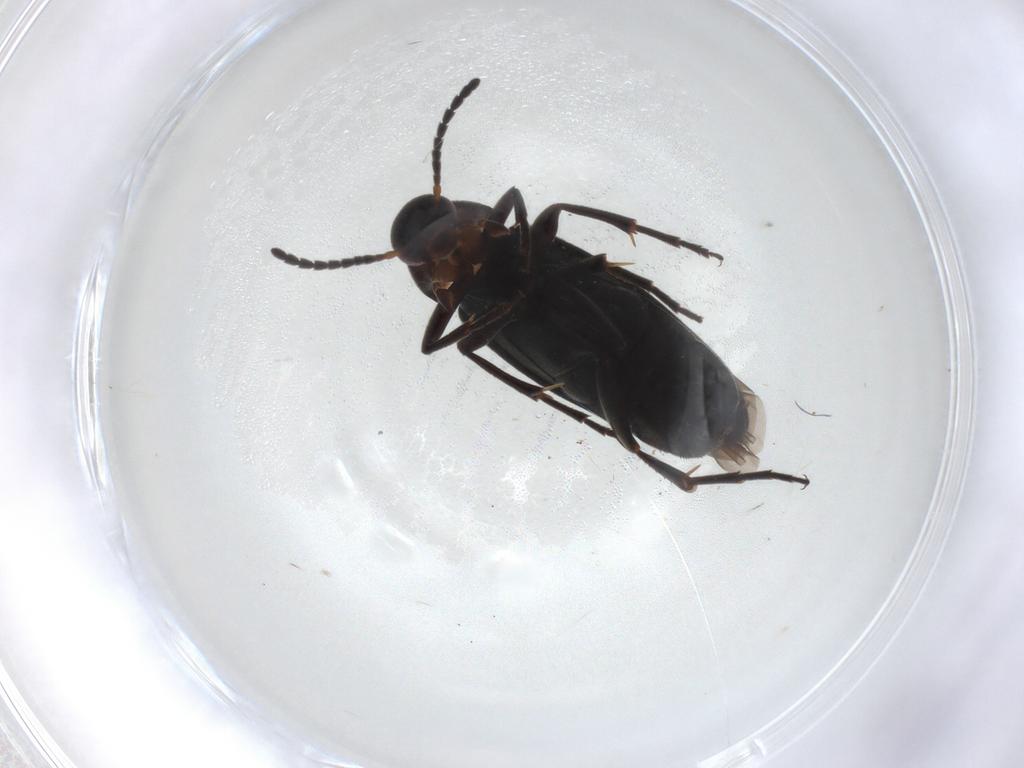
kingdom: Animalia
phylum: Arthropoda
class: Insecta
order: Coleoptera
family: Scraptiidae
